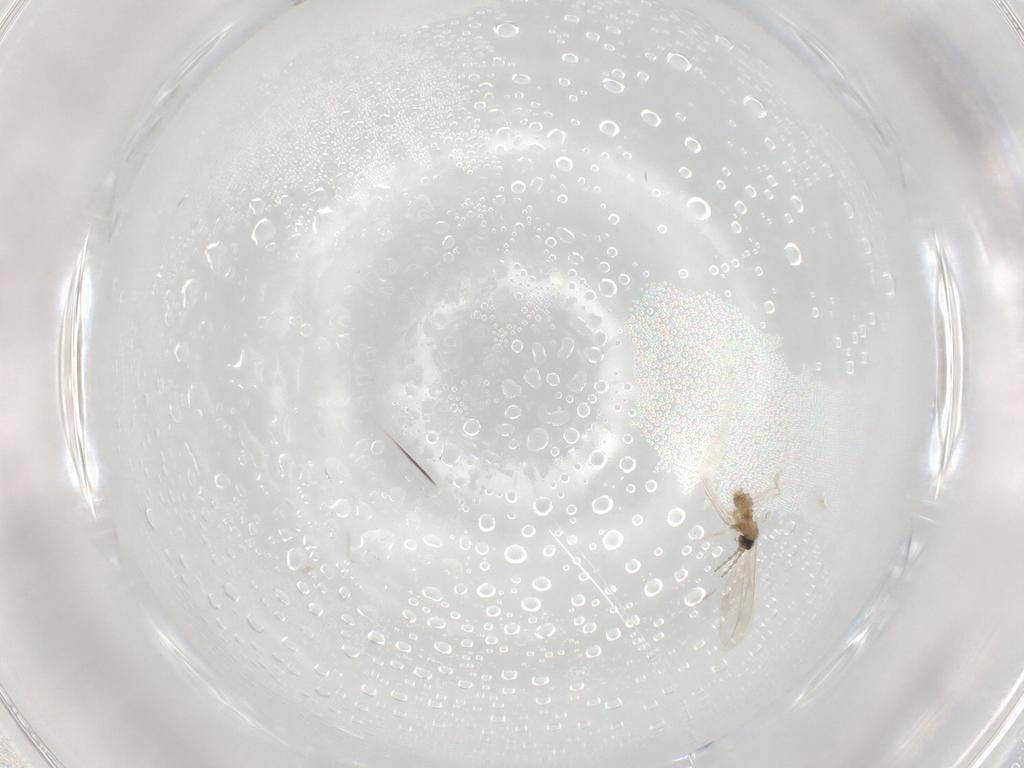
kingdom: Animalia
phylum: Arthropoda
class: Insecta
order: Diptera
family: Cecidomyiidae
